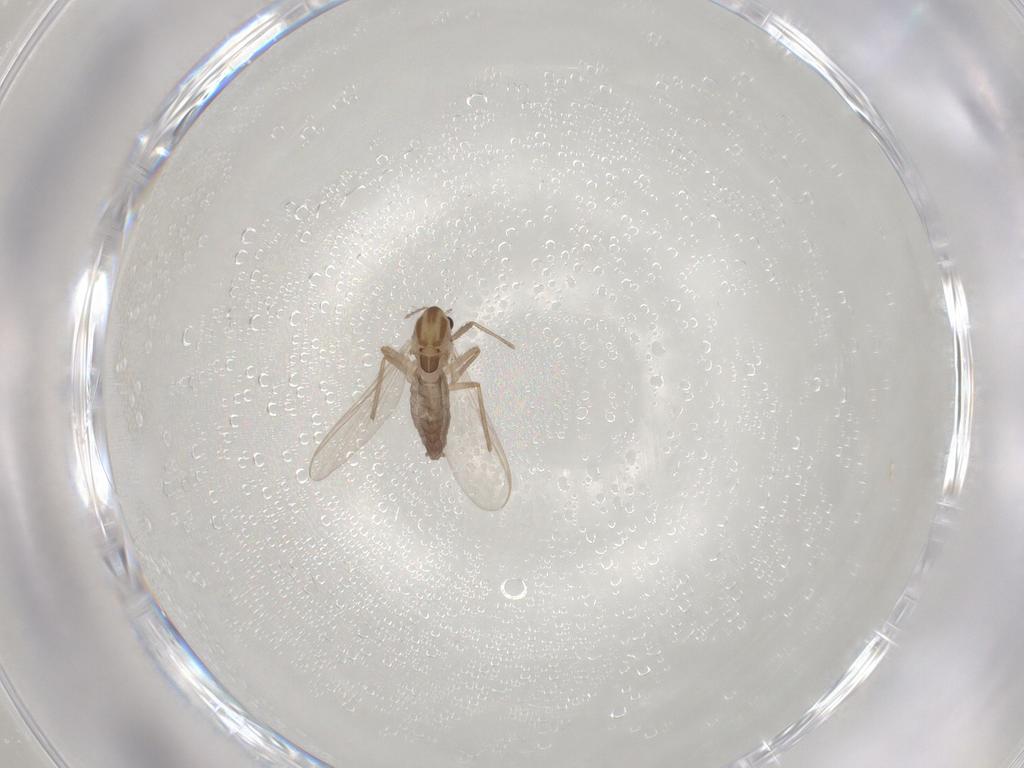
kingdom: Animalia
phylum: Arthropoda
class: Insecta
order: Diptera
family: Chironomidae
